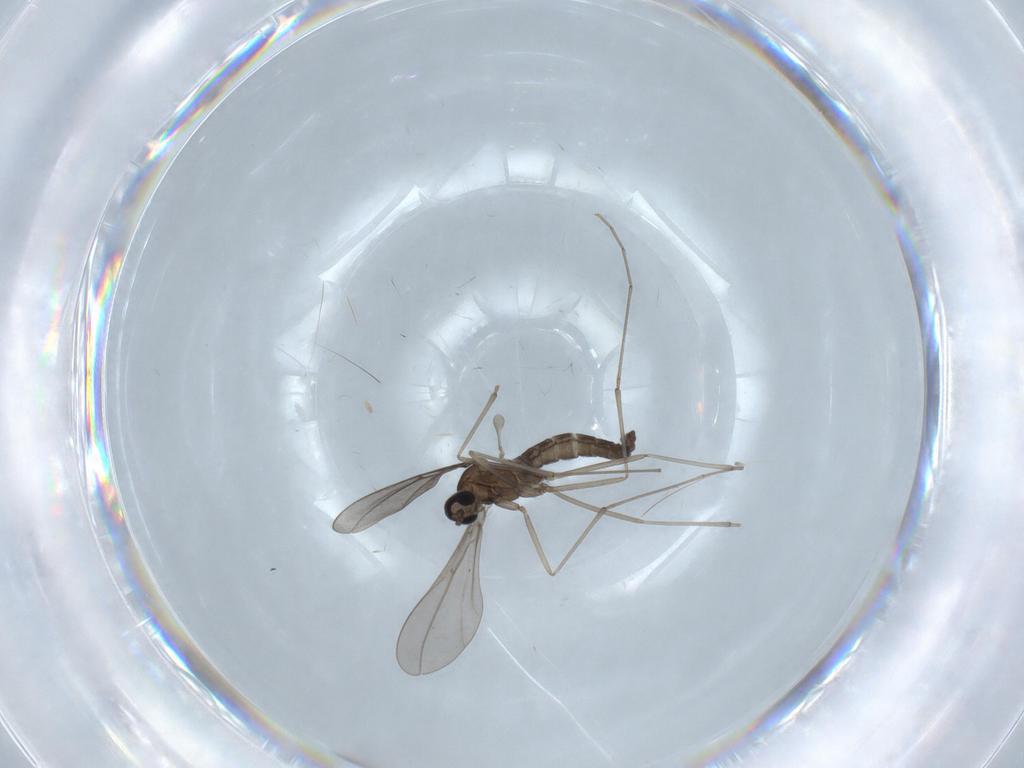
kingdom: Animalia
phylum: Arthropoda
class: Insecta
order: Diptera
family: Cecidomyiidae
